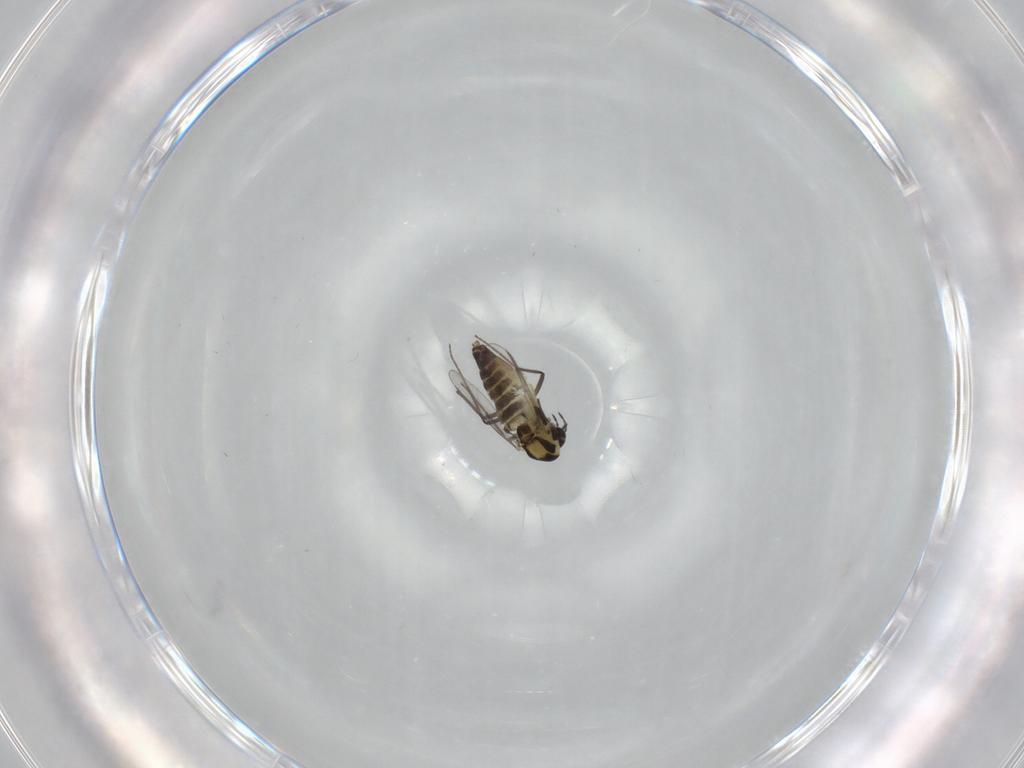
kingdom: Animalia
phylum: Arthropoda
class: Insecta
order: Diptera
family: Chironomidae
